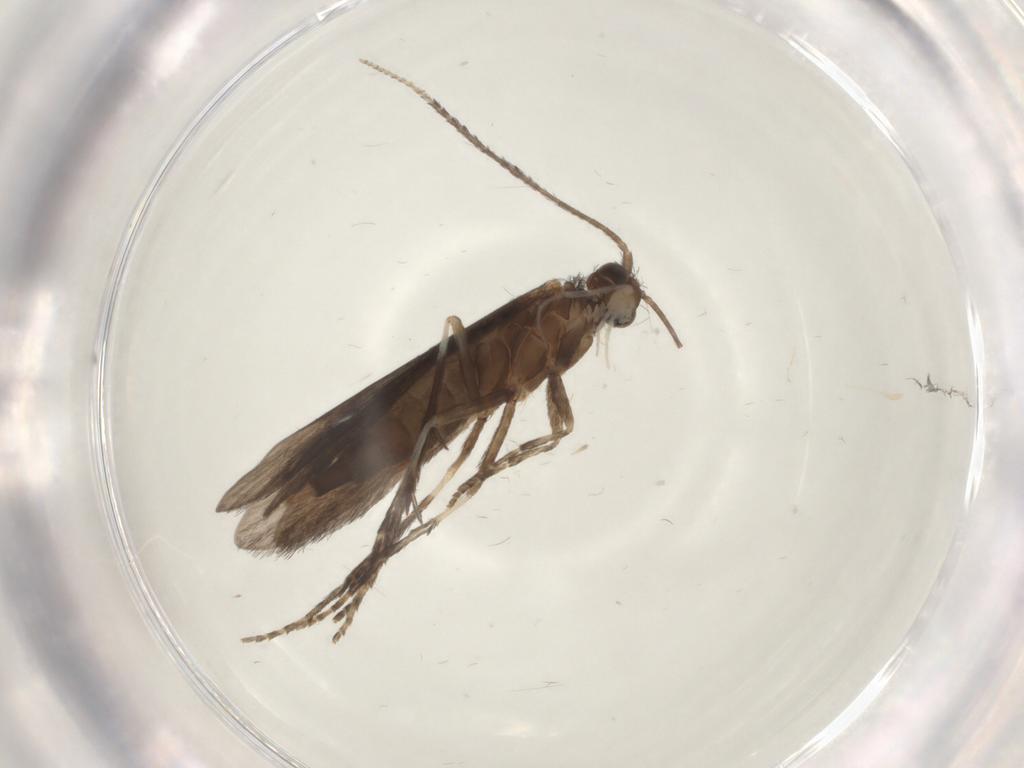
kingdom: Animalia
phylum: Arthropoda
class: Insecta
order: Trichoptera
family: Xiphocentronidae
